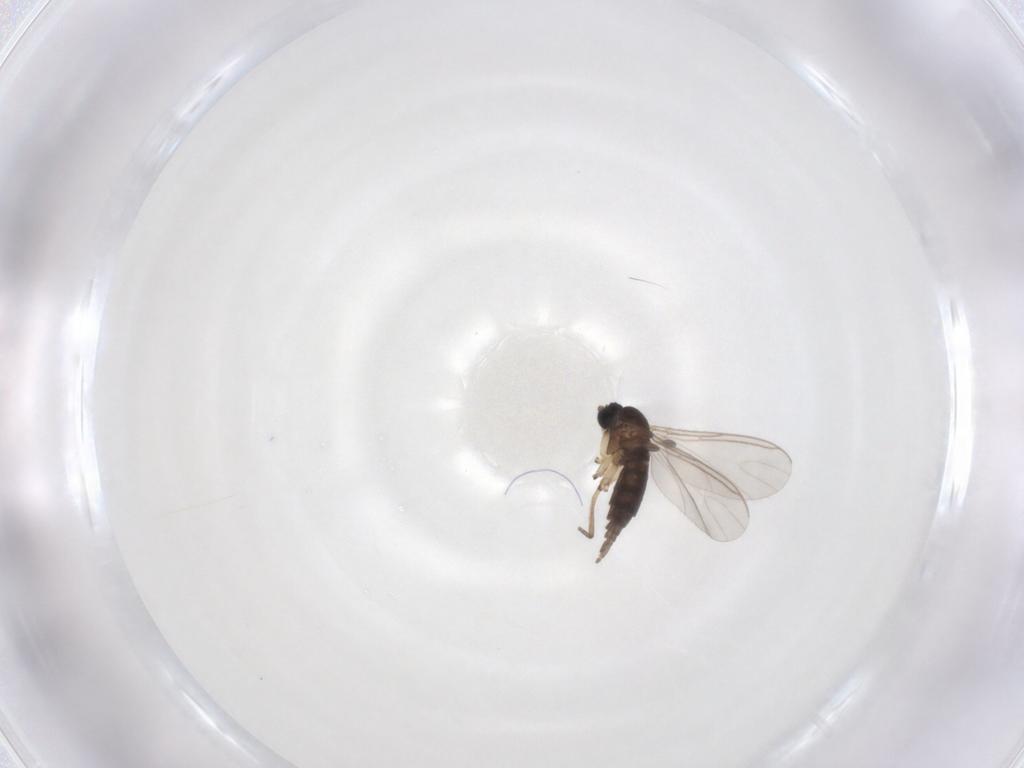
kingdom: Animalia
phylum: Arthropoda
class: Insecta
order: Diptera
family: Sciaridae
